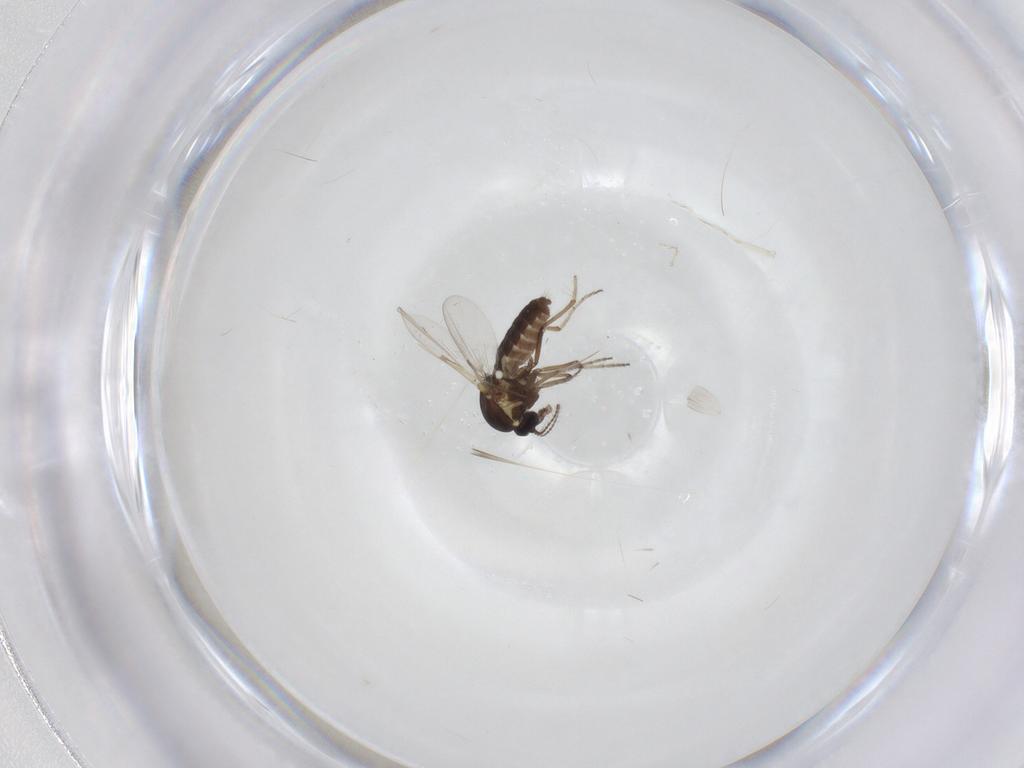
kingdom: Animalia
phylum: Arthropoda
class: Insecta
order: Diptera
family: Ceratopogonidae
